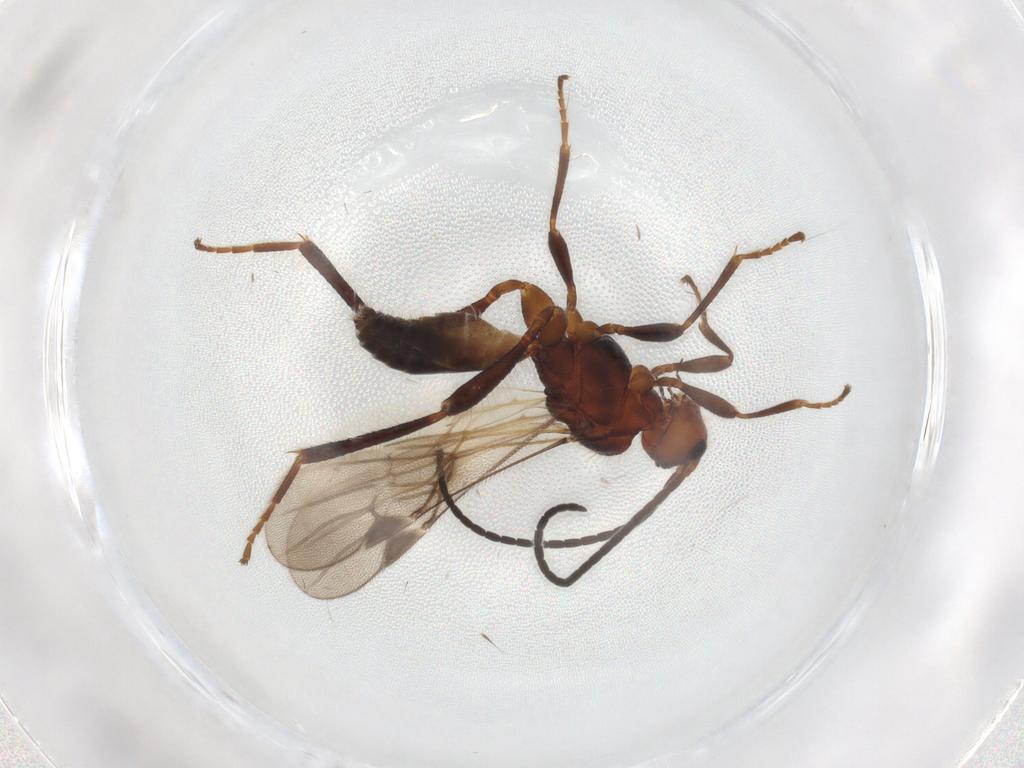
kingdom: Animalia
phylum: Arthropoda
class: Insecta
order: Hymenoptera
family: Braconidae
